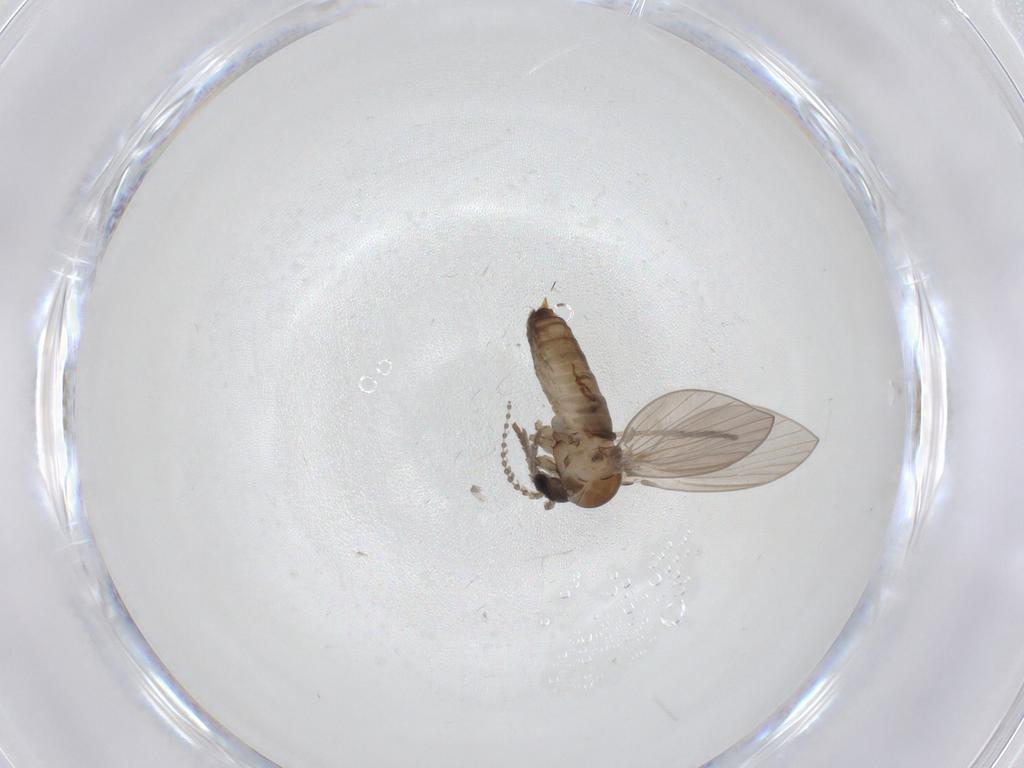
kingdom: Animalia
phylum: Arthropoda
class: Insecta
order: Diptera
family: Psychodidae
